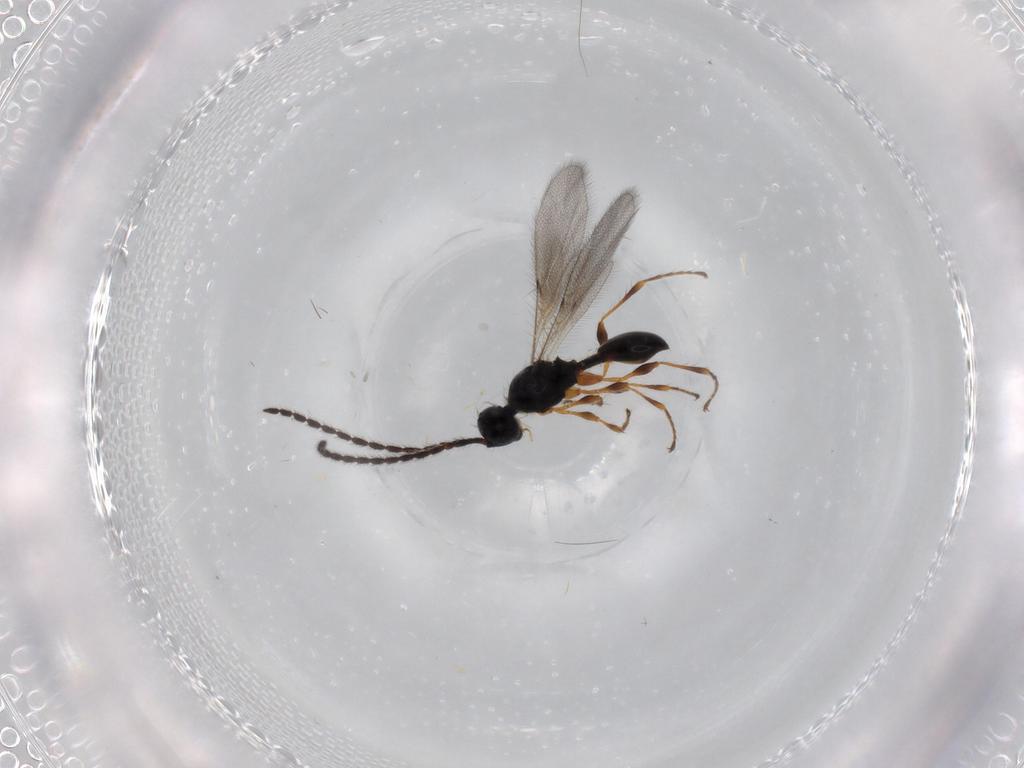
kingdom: Animalia
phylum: Arthropoda
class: Insecta
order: Hymenoptera
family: Diapriidae
